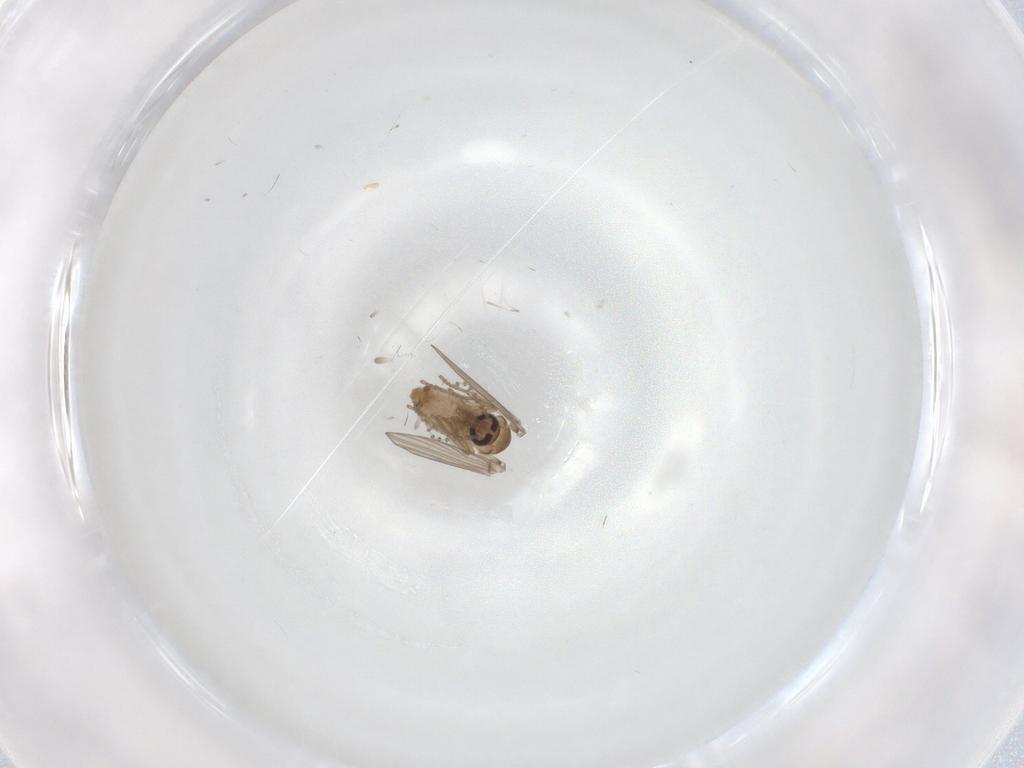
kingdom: Animalia
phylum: Arthropoda
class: Insecta
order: Diptera
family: Psychodidae
